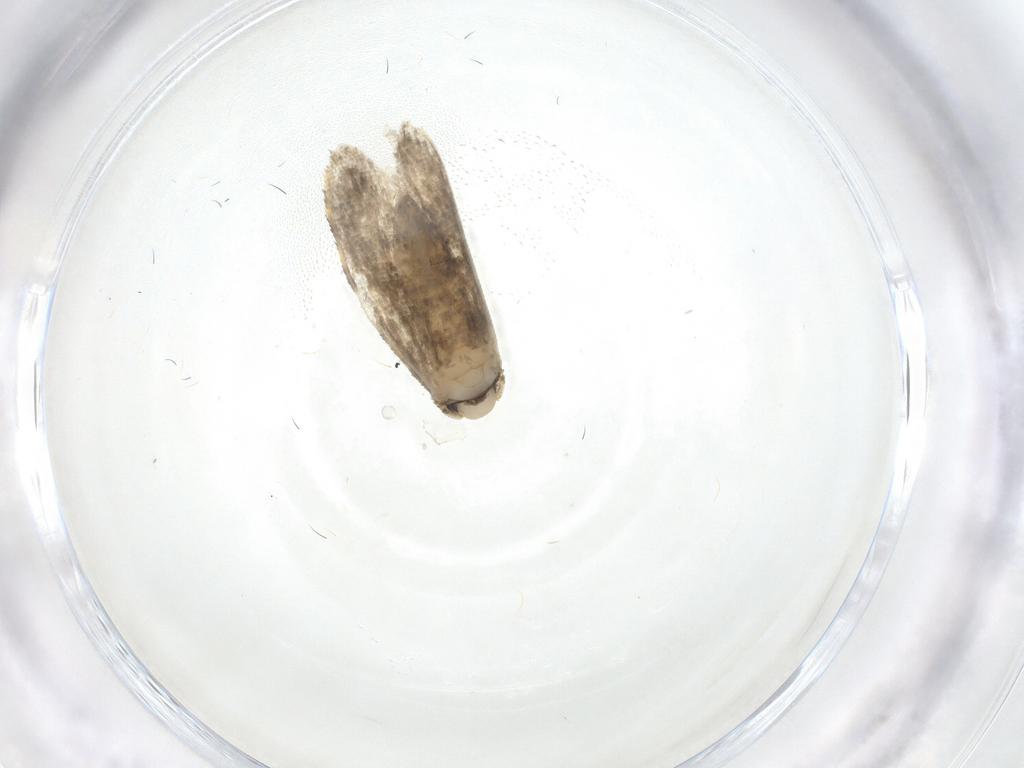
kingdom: Animalia
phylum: Arthropoda
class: Insecta
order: Lepidoptera
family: Psychidae
